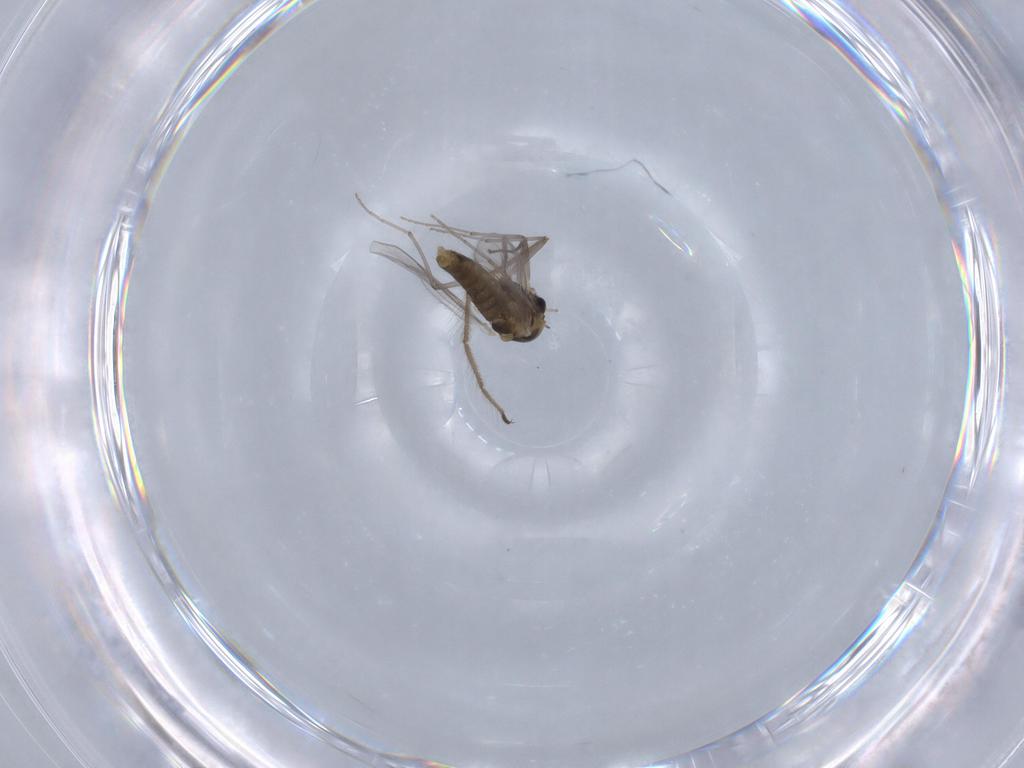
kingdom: Animalia
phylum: Arthropoda
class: Insecta
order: Diptera
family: Chironomidae
